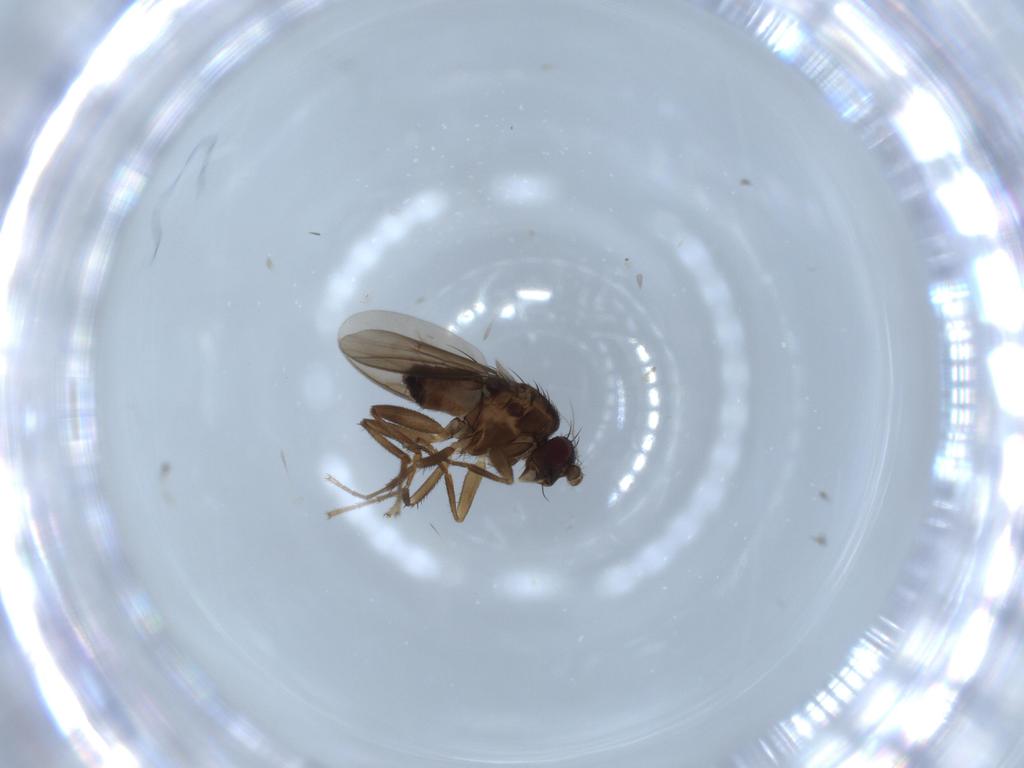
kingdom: Animalia
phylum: Arthropoda
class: Insecta
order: Diptera
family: Sphaeroceridae
